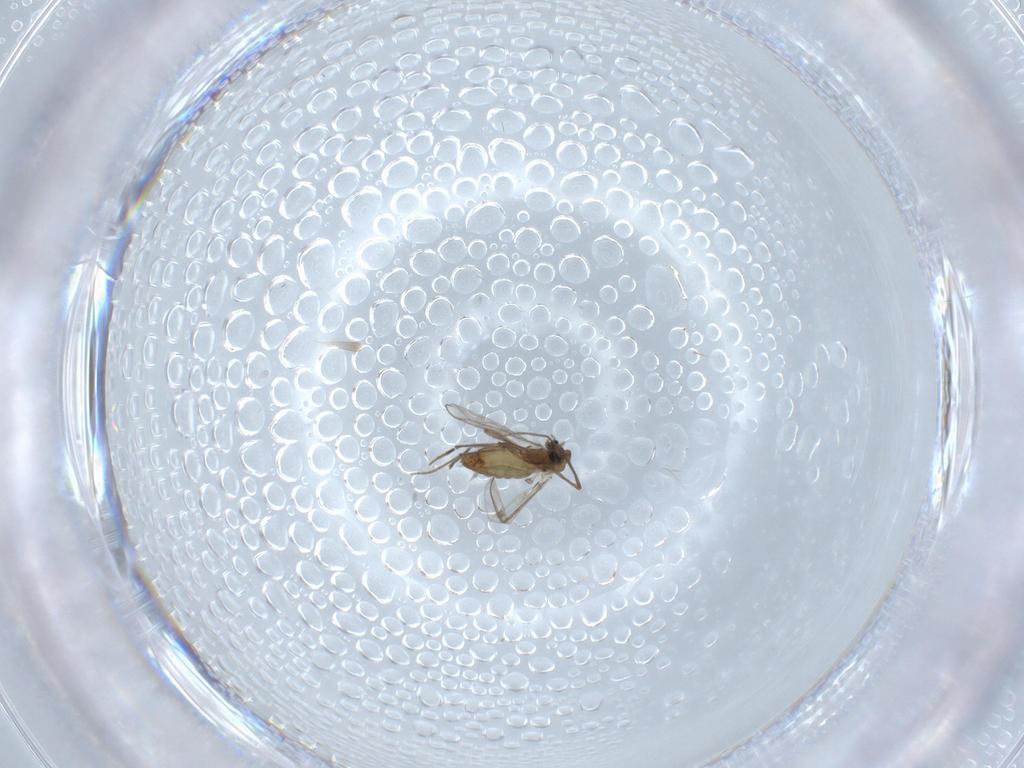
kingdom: Animalia
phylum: Arthropoda
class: Insecta
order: Diptera
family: Chironomidae
